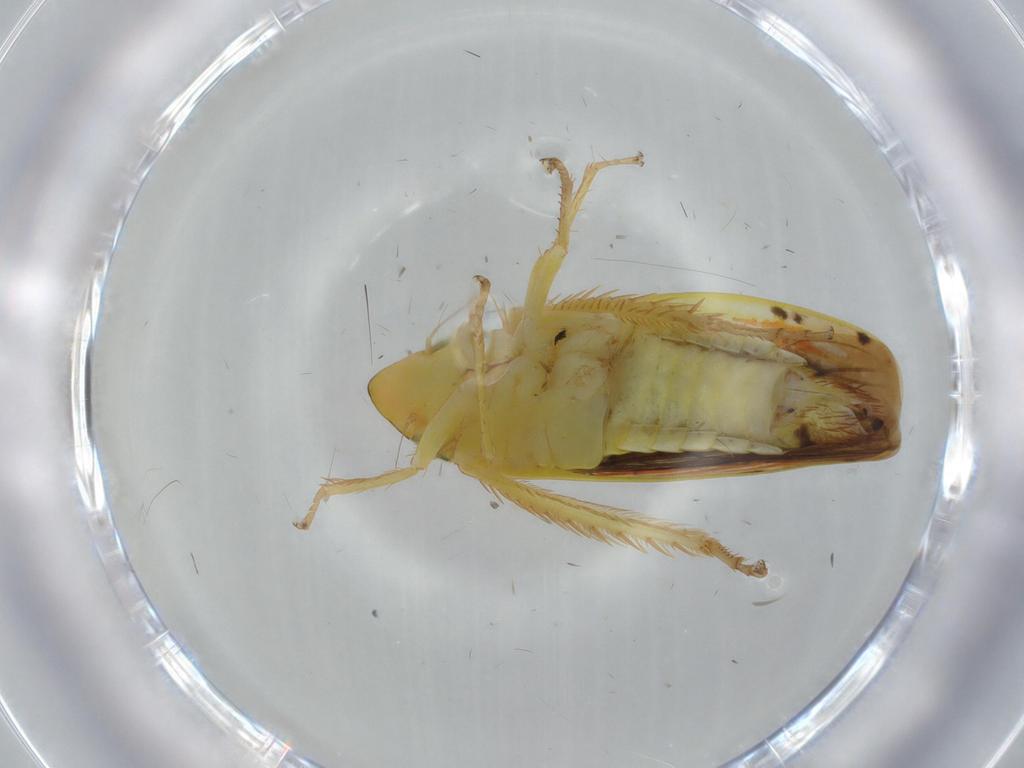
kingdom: Animalia
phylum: Arthropoda
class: Insecta
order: Hemiptera
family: Cicadellidae
